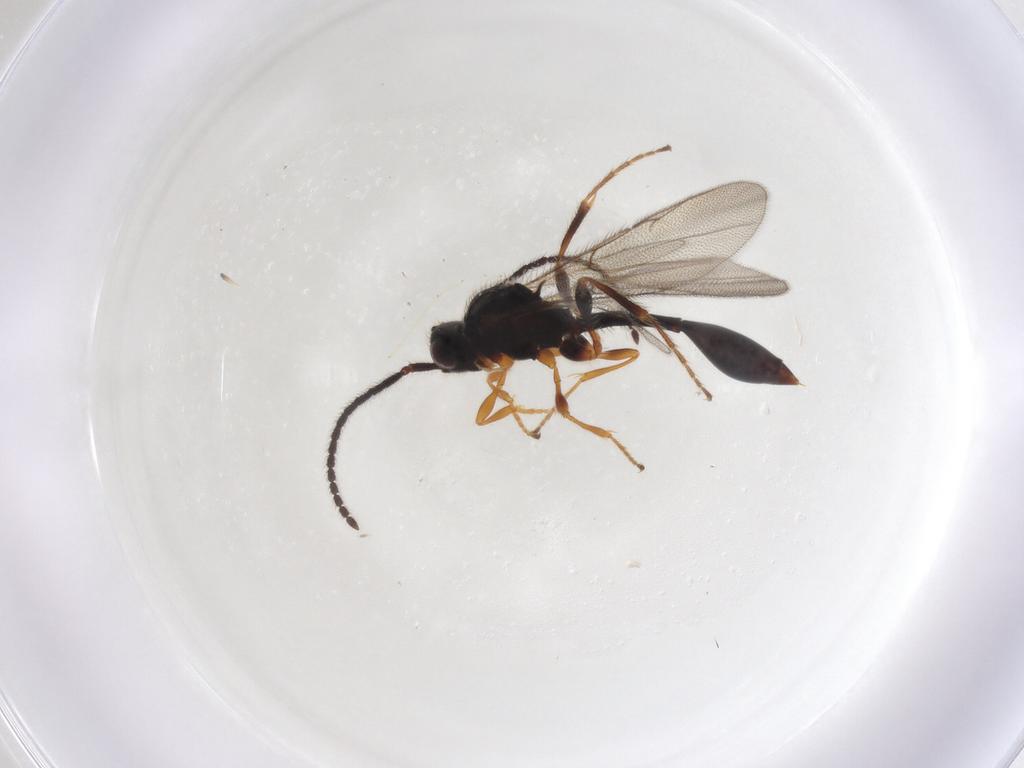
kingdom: Animalia
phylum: Arthropoda
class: Insecta
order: Hymenoptera
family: Diapriidae
